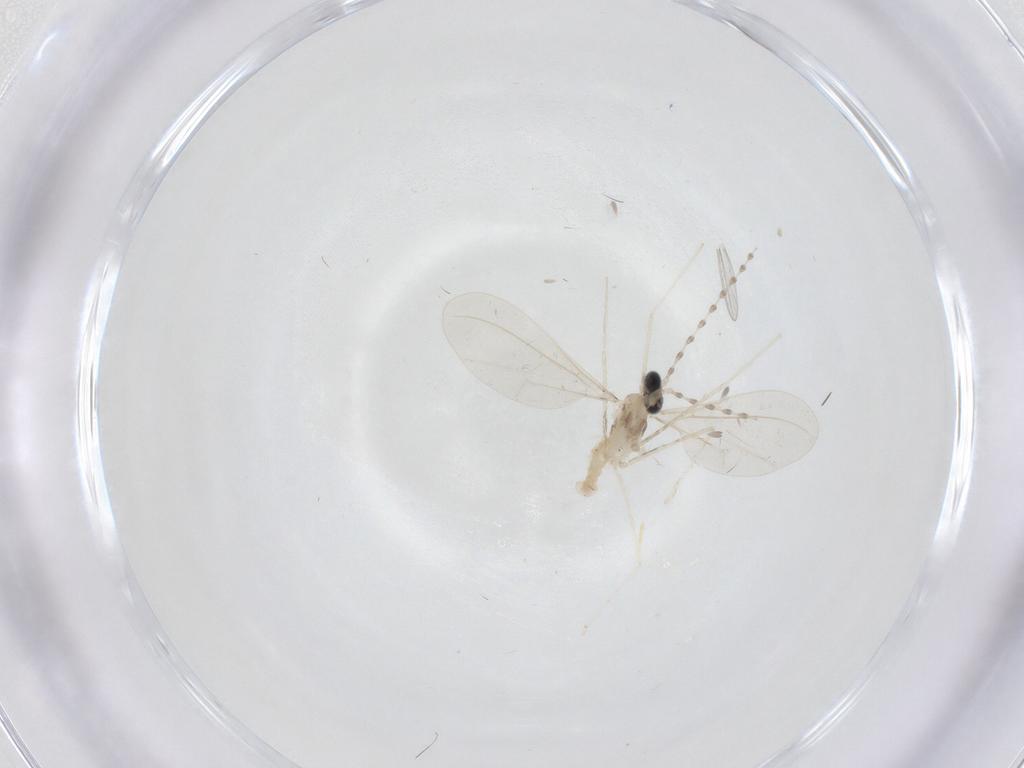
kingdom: Animalia
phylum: Arthropoda
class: Insecta
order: Diptera
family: Cecidomyiidae
